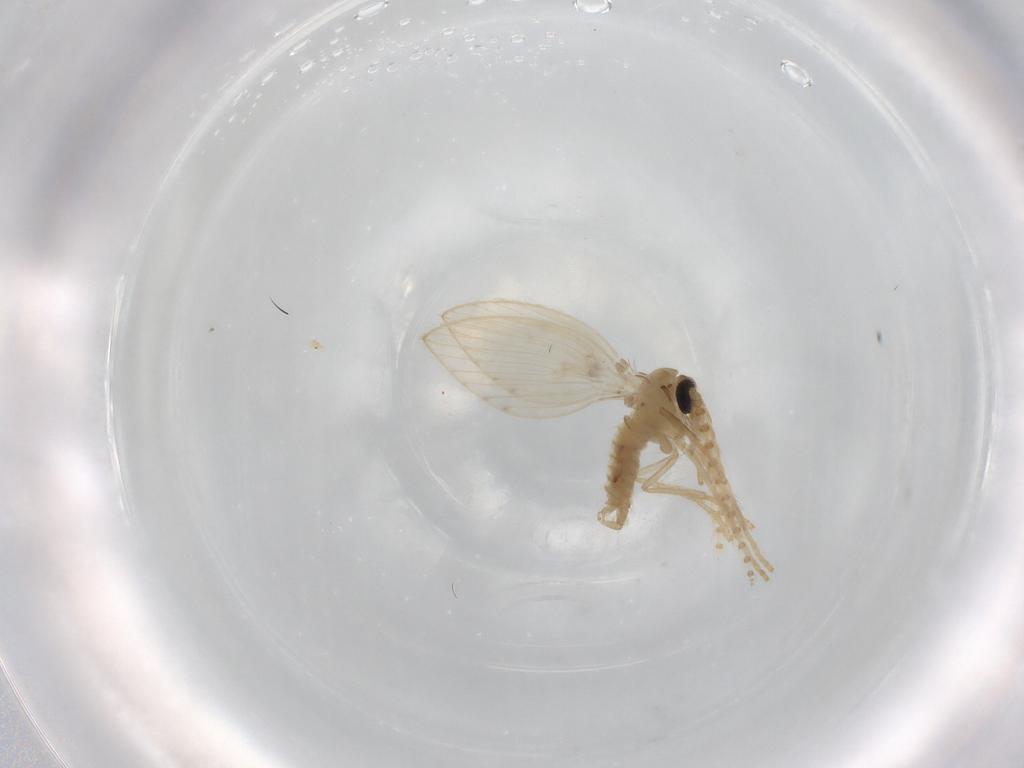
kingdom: Animalia
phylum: Arthropoda
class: Insecta
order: Diptera
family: Psychodidae
